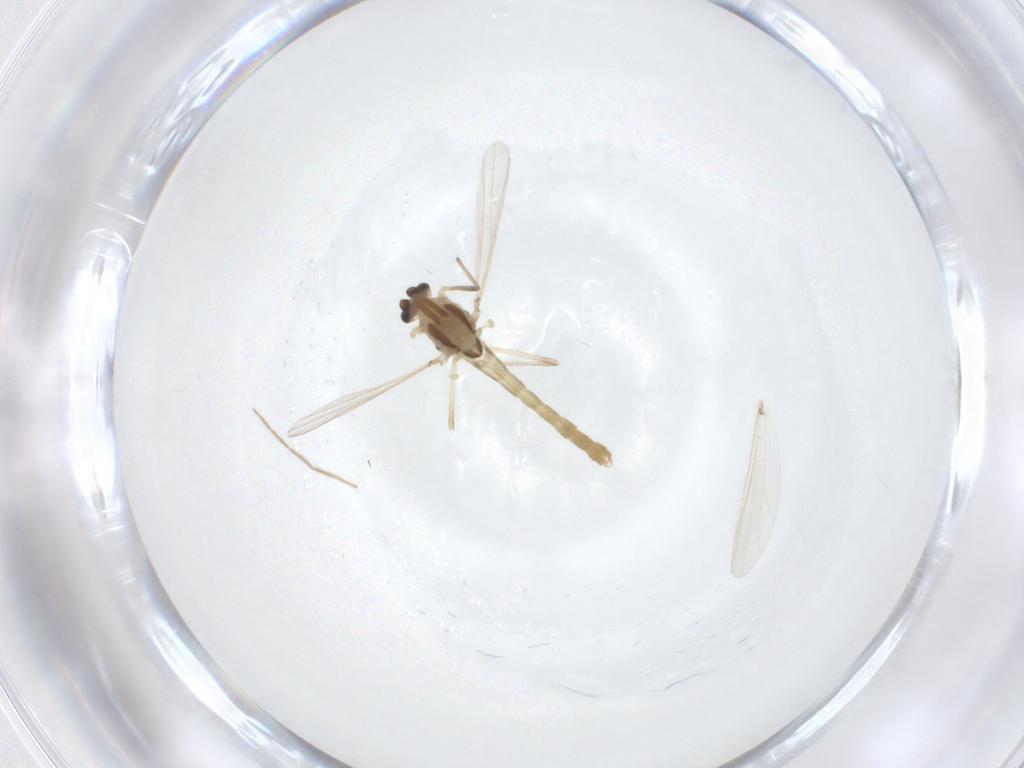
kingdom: Animalia
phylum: Arthropoda
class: Insecta
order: Diptera
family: Chironomidae
